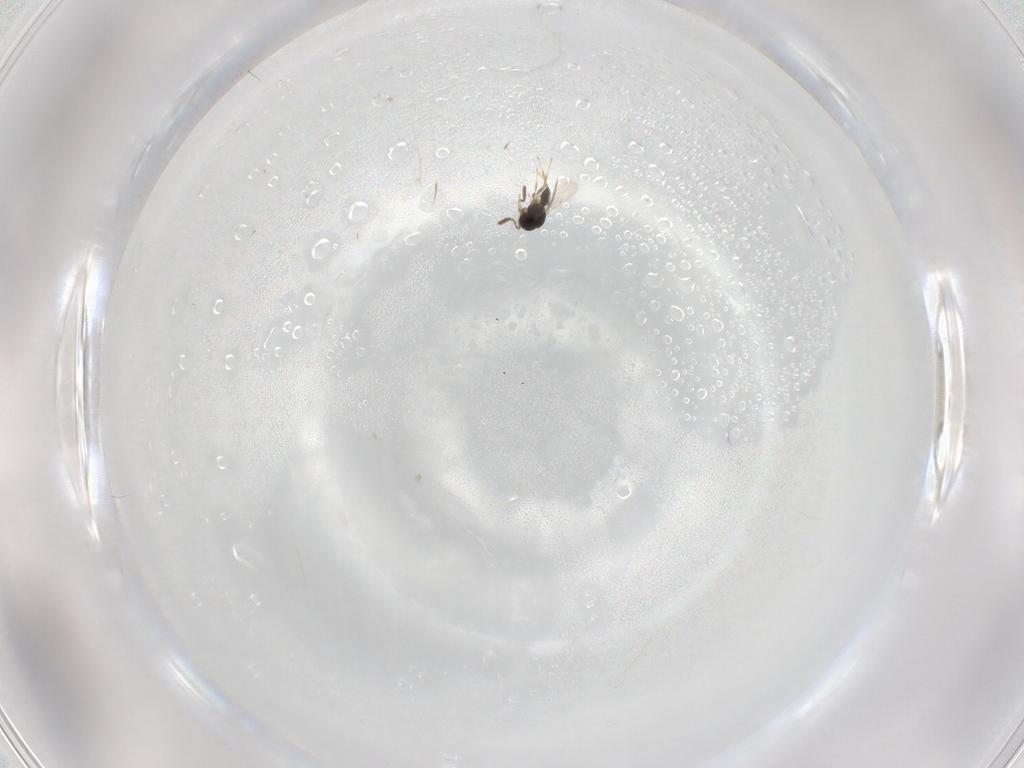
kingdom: Animalia
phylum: Arthropoda
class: Insecta
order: Hymenoptera
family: Scelionidae
